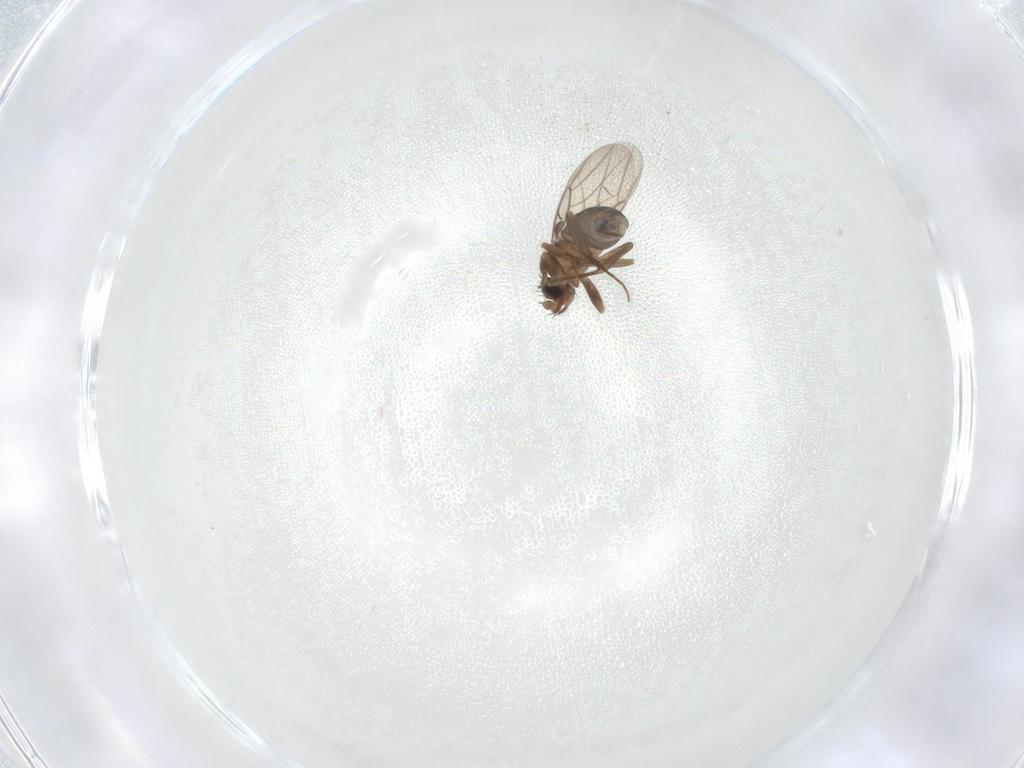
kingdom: Animalia
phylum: Arthropoda
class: Insecta
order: Diptera
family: Phoridae
